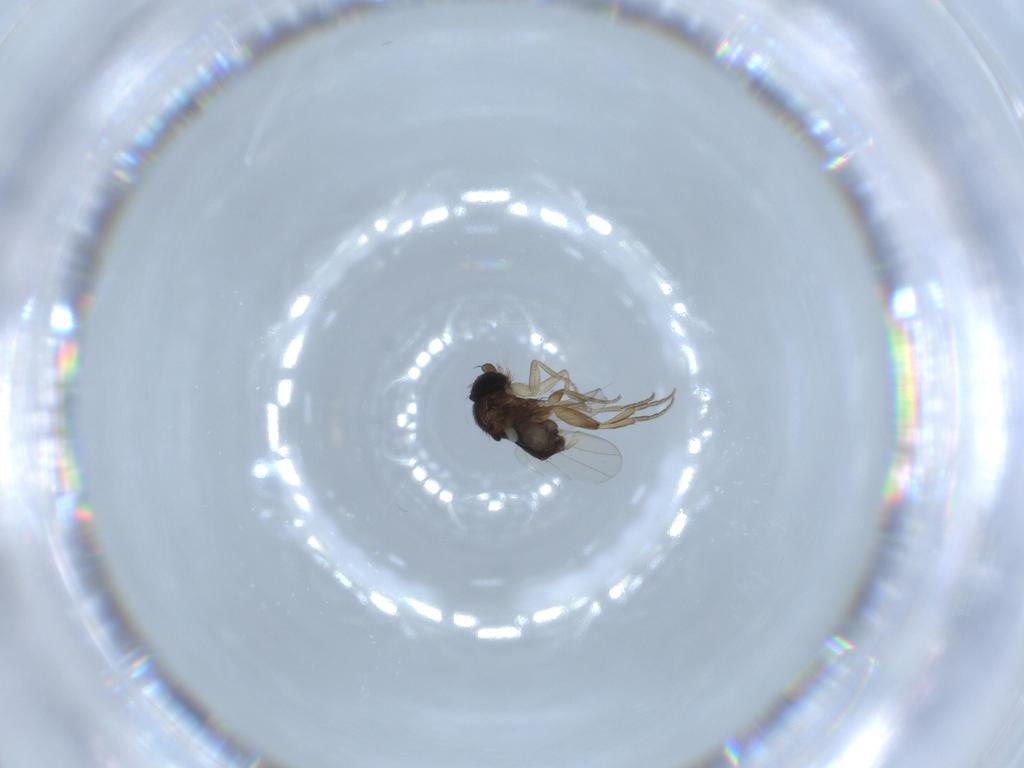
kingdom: Animalia
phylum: Arthropoda
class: Insecta
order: Diptera
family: Phoridae
